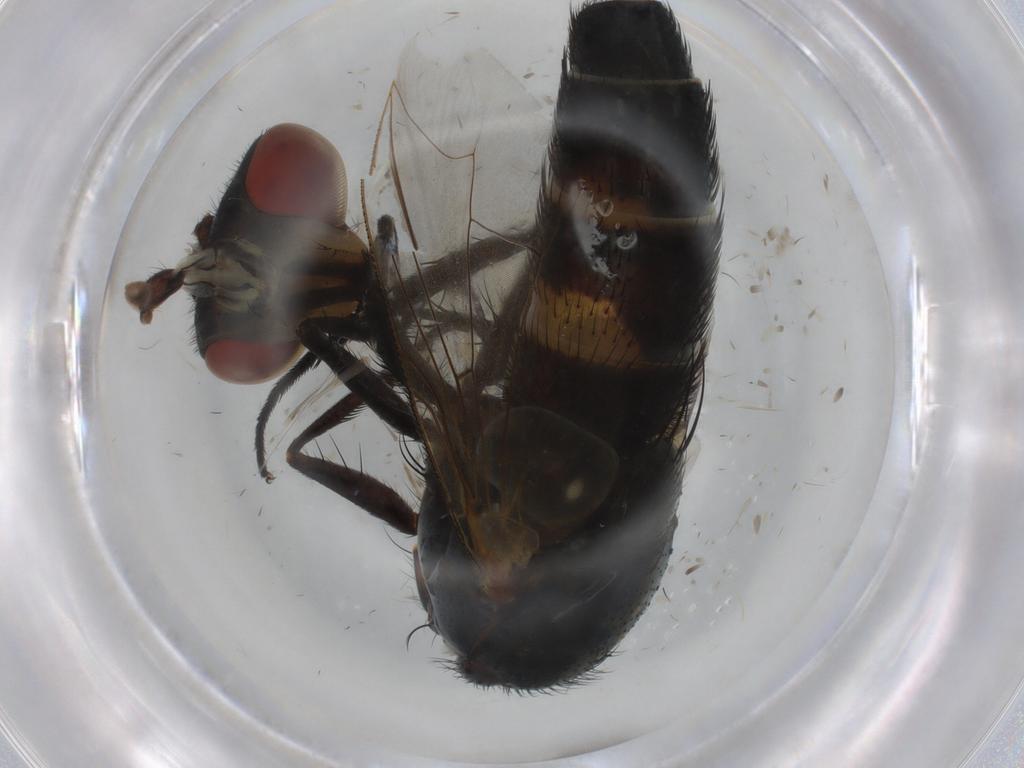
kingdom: Animalia
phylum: Arthropoda
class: Insecta
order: Diptera
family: Anthomyiidae
